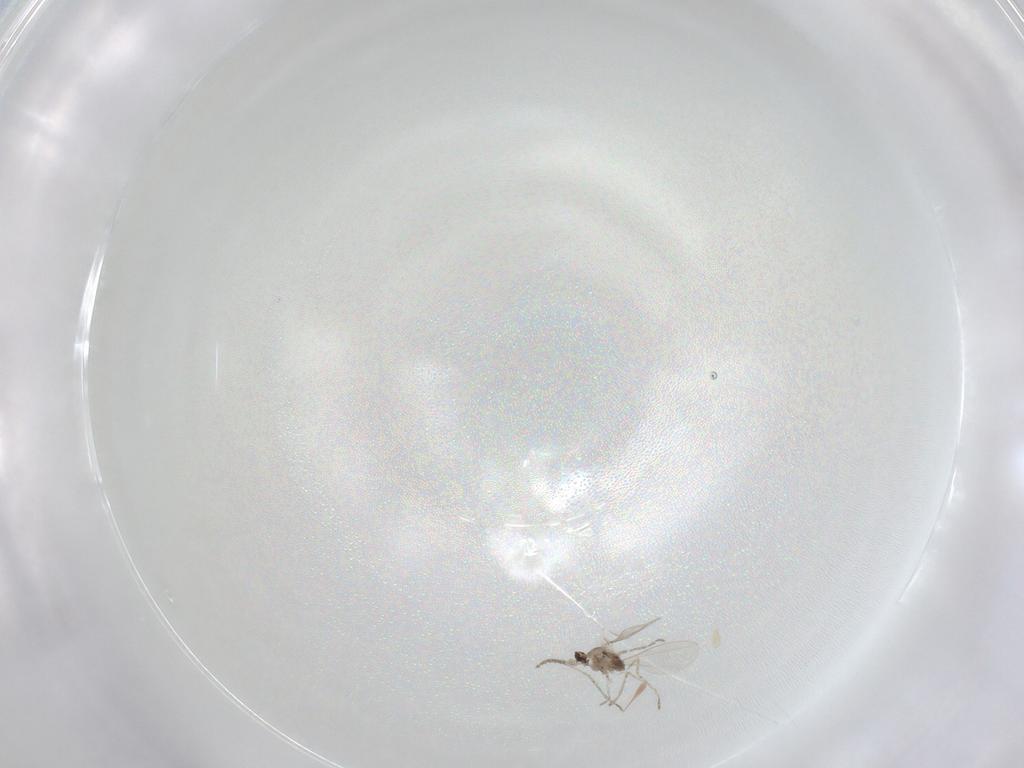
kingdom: Animalia
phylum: Arthropoda
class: Insecta
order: Diptera
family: Cecidomyiidae
